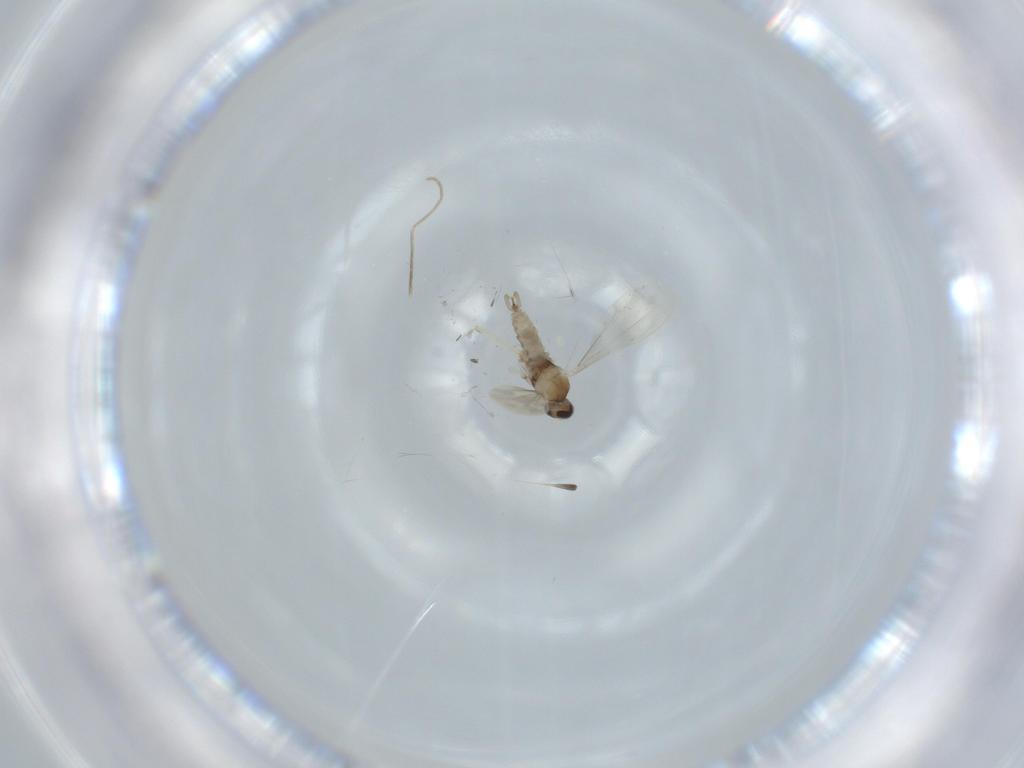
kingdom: Animalia
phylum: Arthropoda
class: Insecta
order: Diptera
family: Cecidomyiidae
